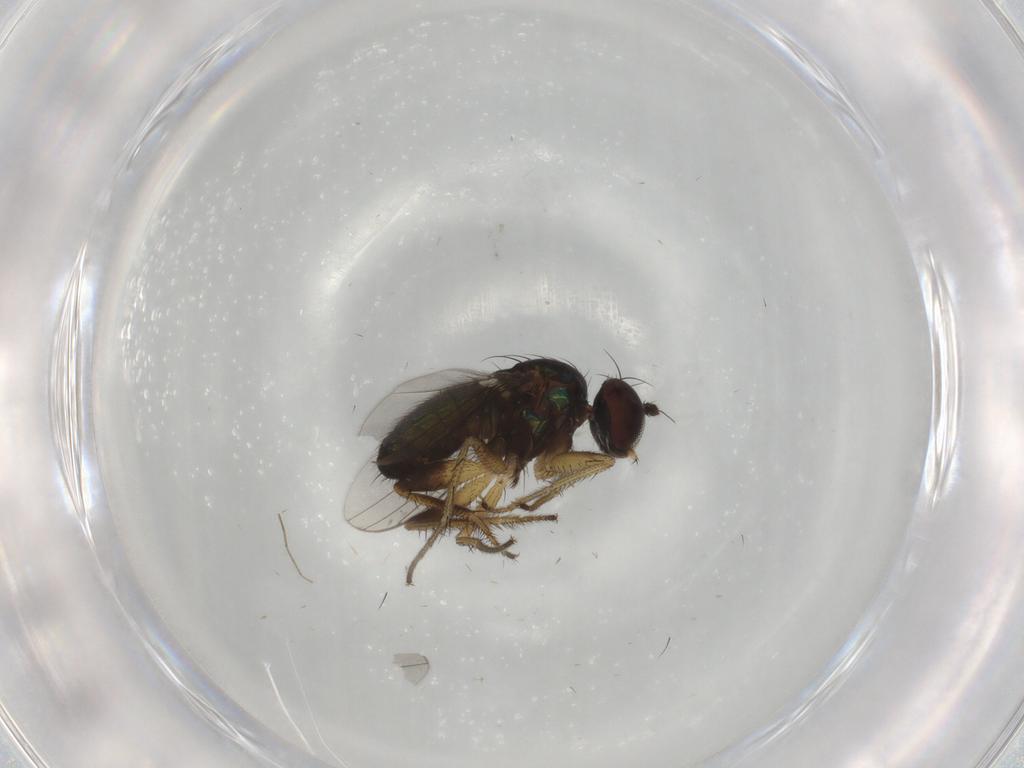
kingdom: Animalia
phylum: Arthropoda
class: Insecta
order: Diptera
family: Dolichopodidae
